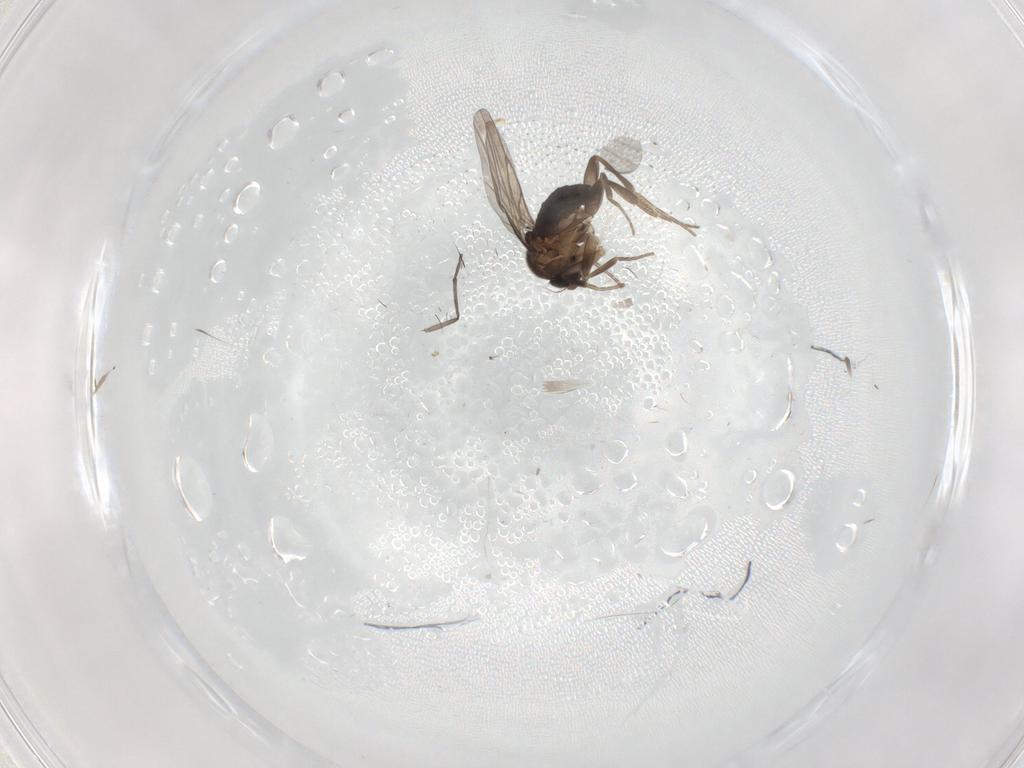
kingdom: Animalia
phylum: Arthropoda
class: Insecta
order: Diptera
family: Phoridae
